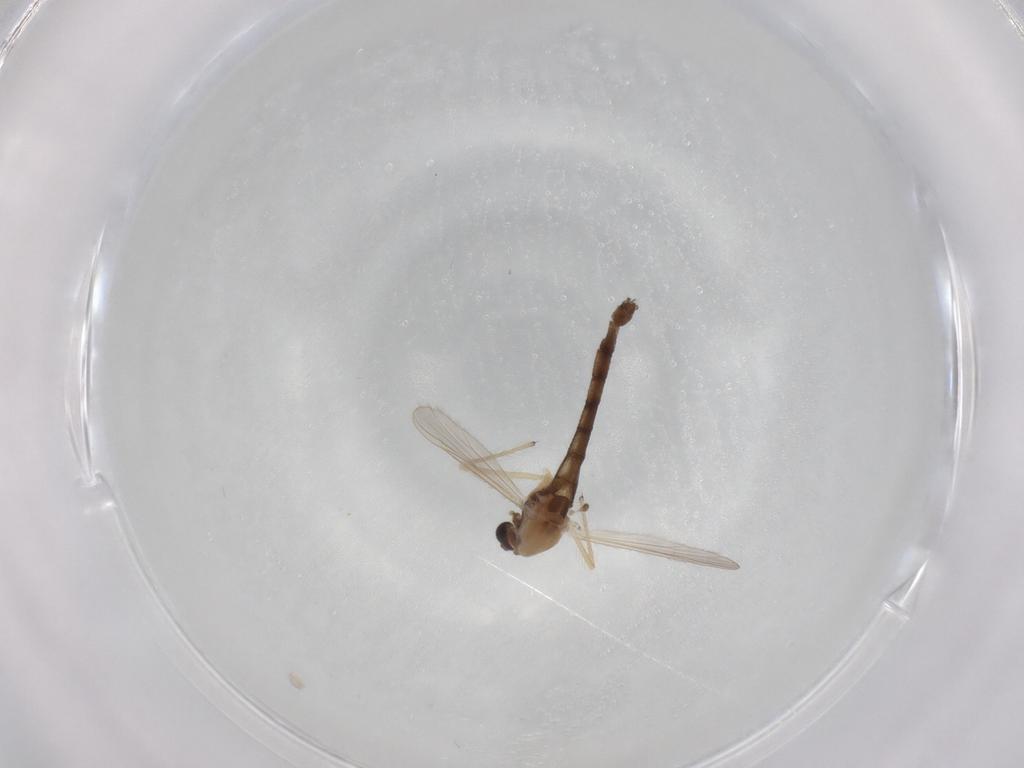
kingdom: Animalia
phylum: Arthropoda
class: Insecta
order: Diptera
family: Chironomidae
